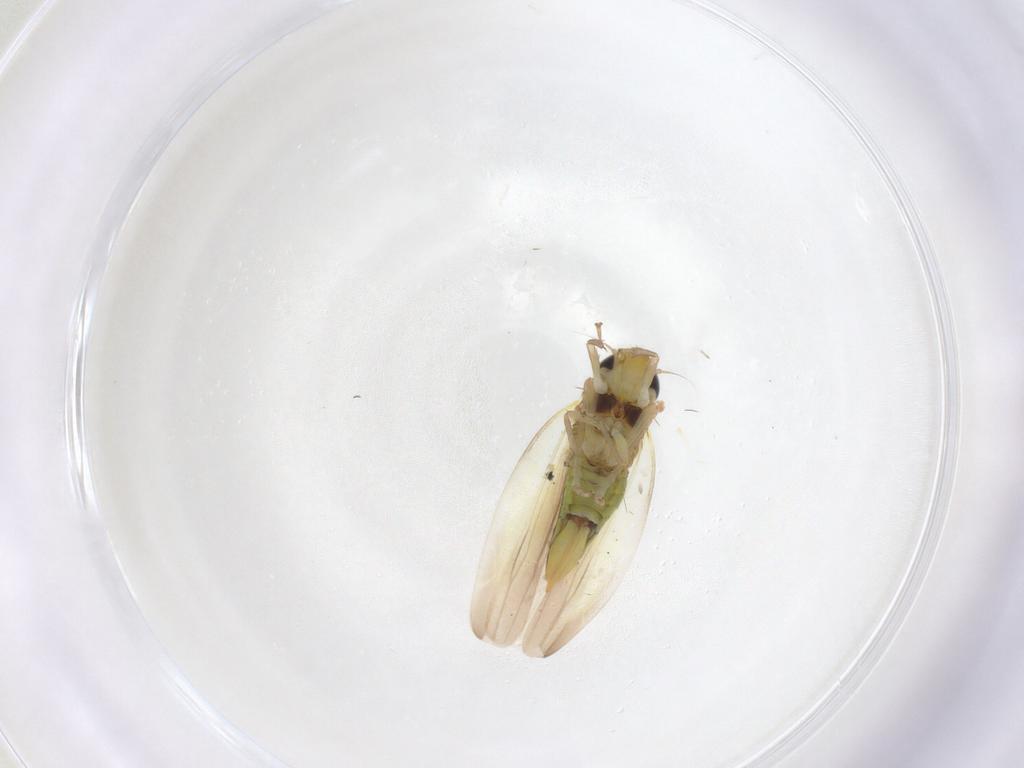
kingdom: Animalia
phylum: Arthropoda
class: Insecta
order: Hemiptera
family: Cicadellidae
